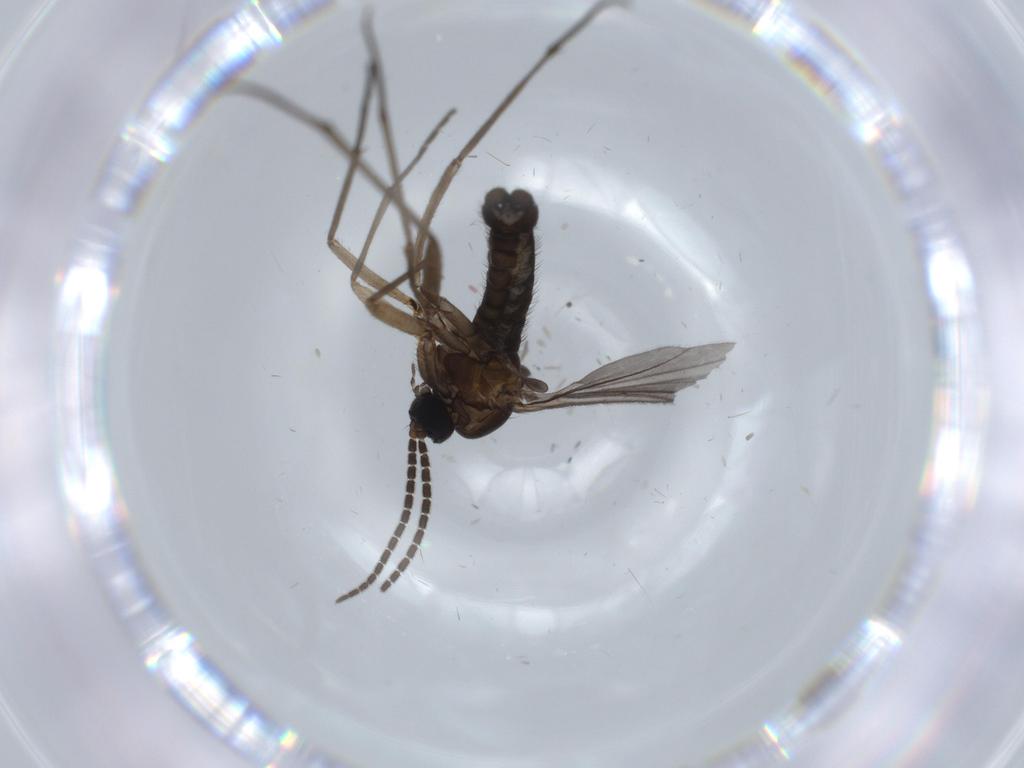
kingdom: Animalia
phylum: Arthropoda
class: Insecta
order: Diptera
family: Sciaridae
